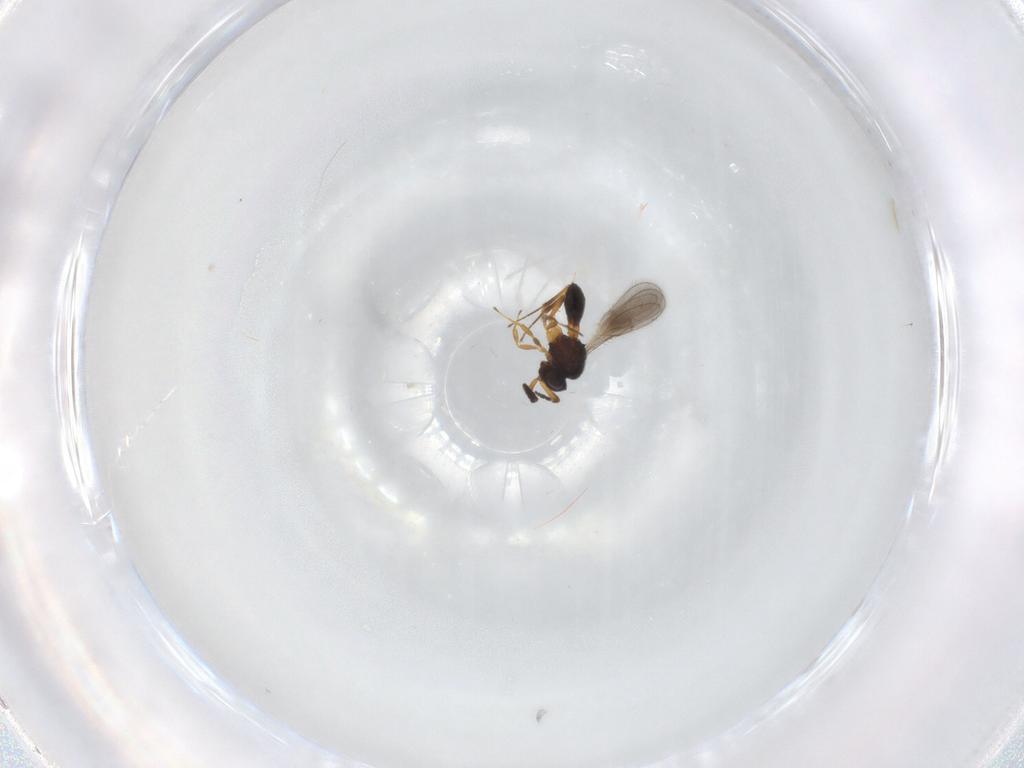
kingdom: Animalia
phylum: Arthropoda
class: Insecta
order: Hymenoptera
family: Scelionidae
